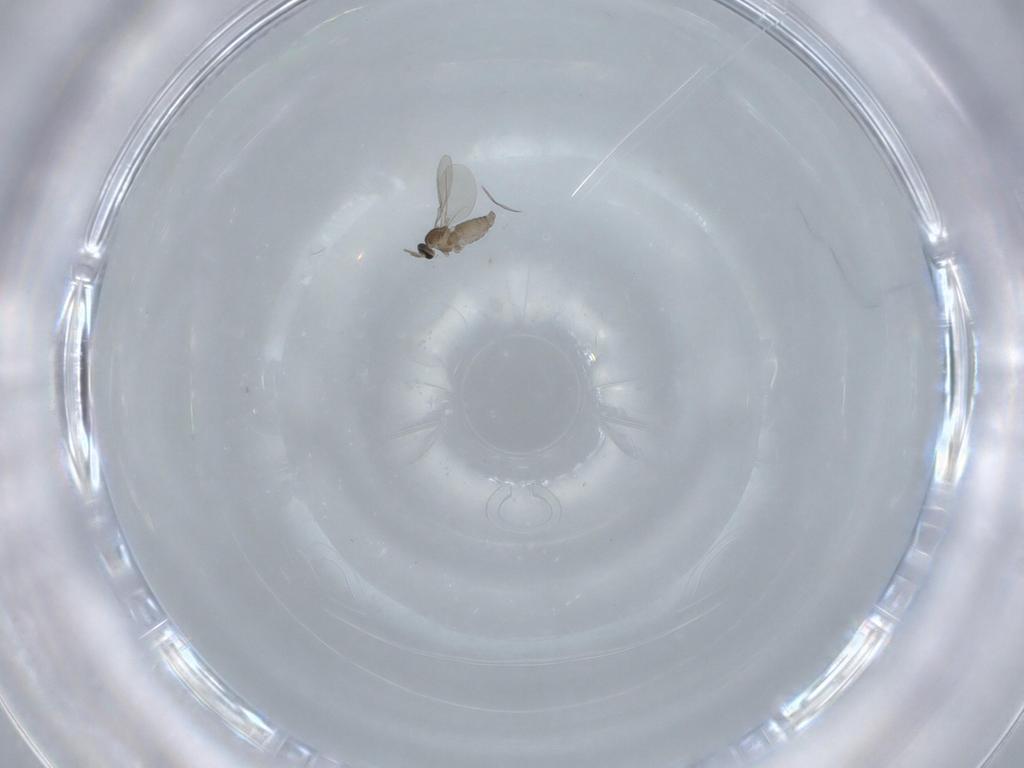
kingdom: Animalia
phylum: Arthropoda
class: Insecta
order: Diptera
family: Cecidomyiidae
